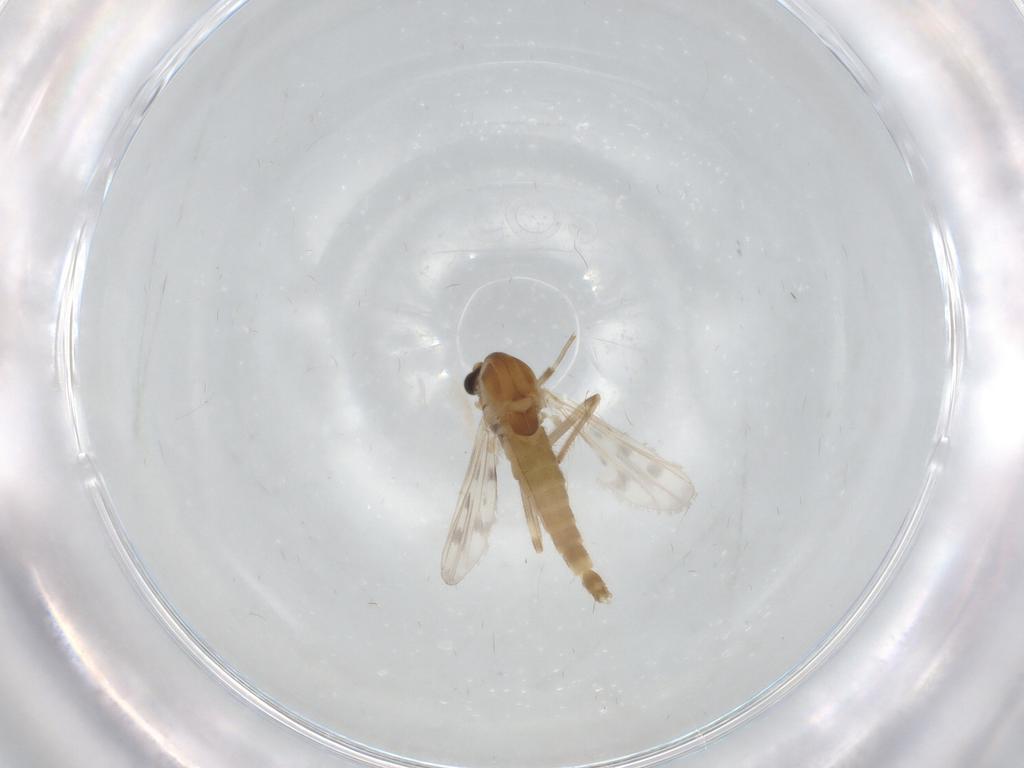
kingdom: Animalia
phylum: Arthropoda
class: Insecta
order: Diptera
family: Chironomidae
